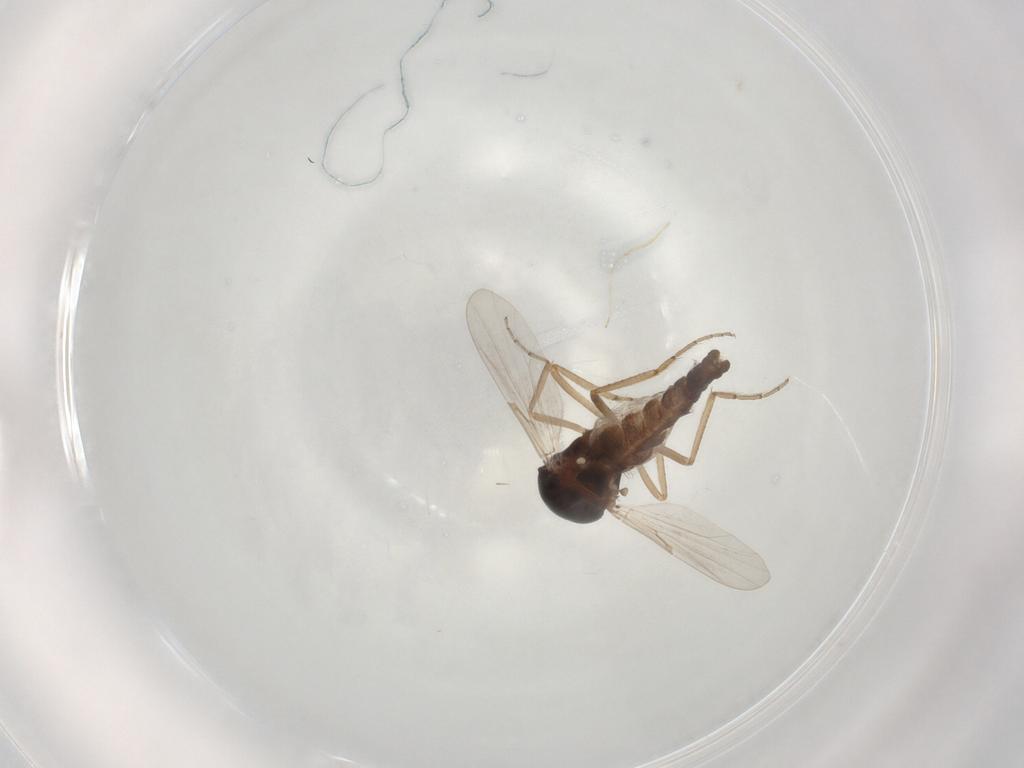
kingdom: Animalia
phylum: Arthropoda
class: Insecta
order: Diptera
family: Ceratopogonidae
